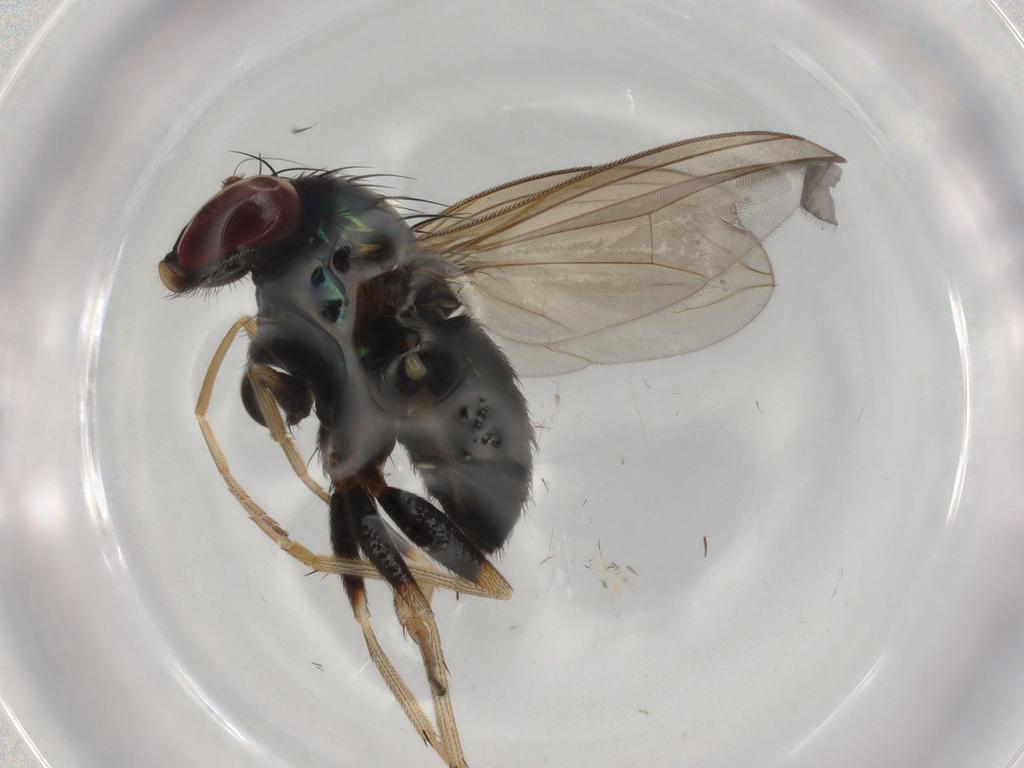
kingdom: Animalia
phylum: Arthropoda
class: Insecta
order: Diptera
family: Dolichopodidae
